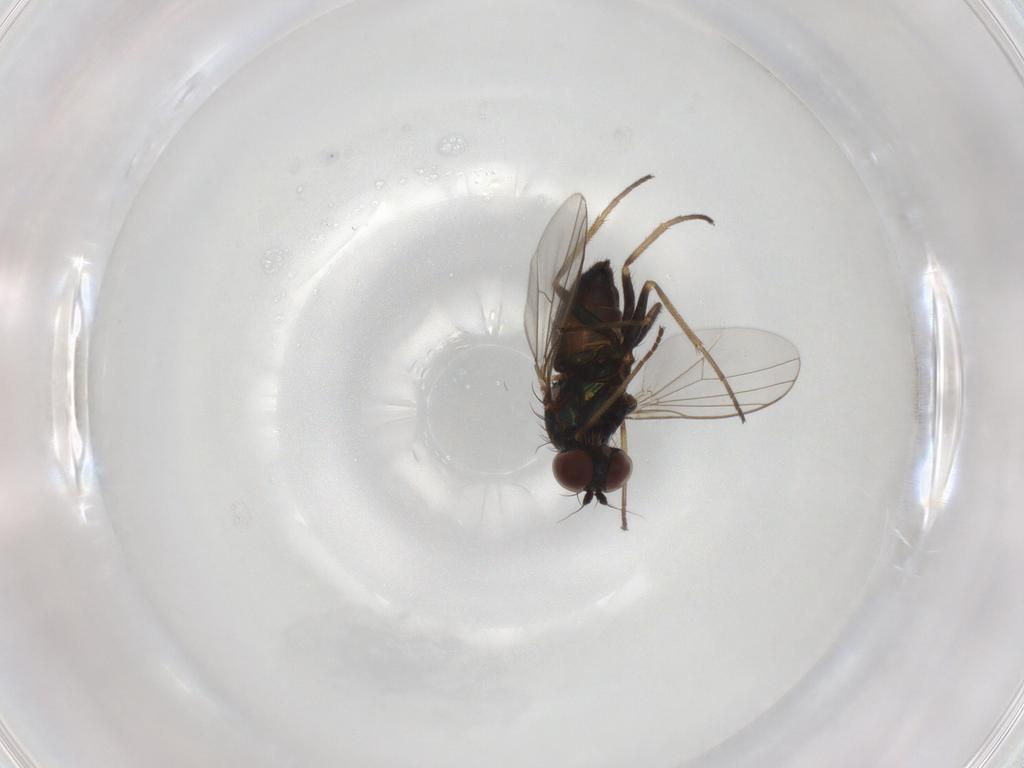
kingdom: Animalia
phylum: Arthropoda
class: Insecta
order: Diptera
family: Dolichopodidae
